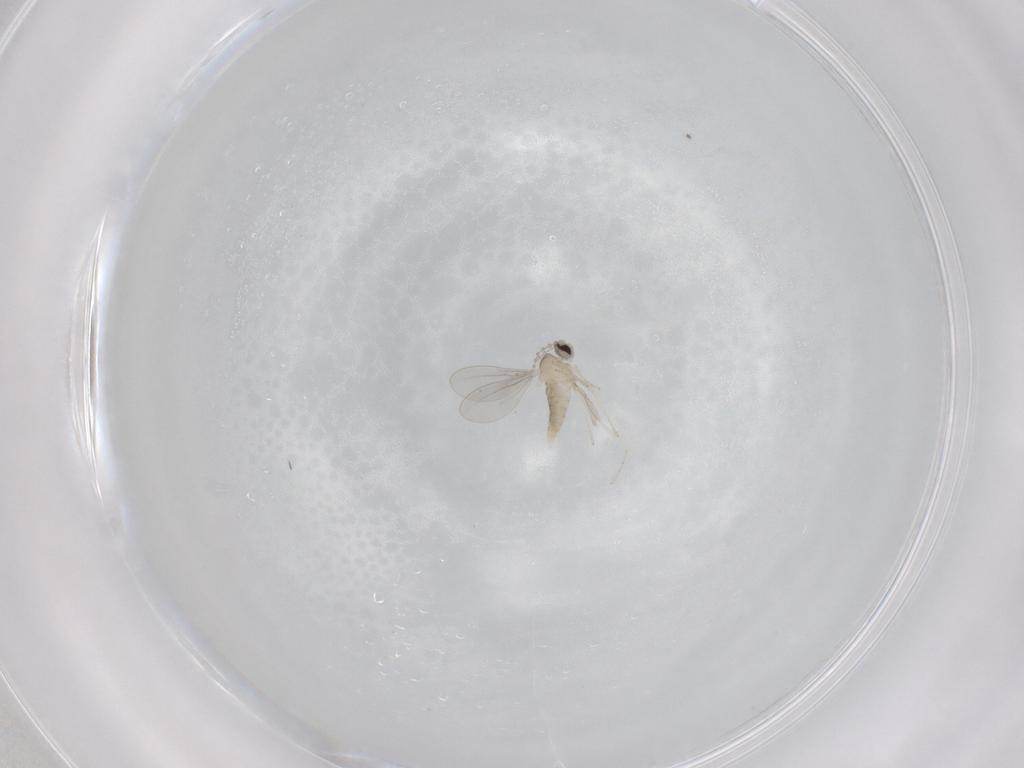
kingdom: Animalia
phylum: Arthropoda
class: Insecta
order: Diptera
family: Cecidomyiidae
